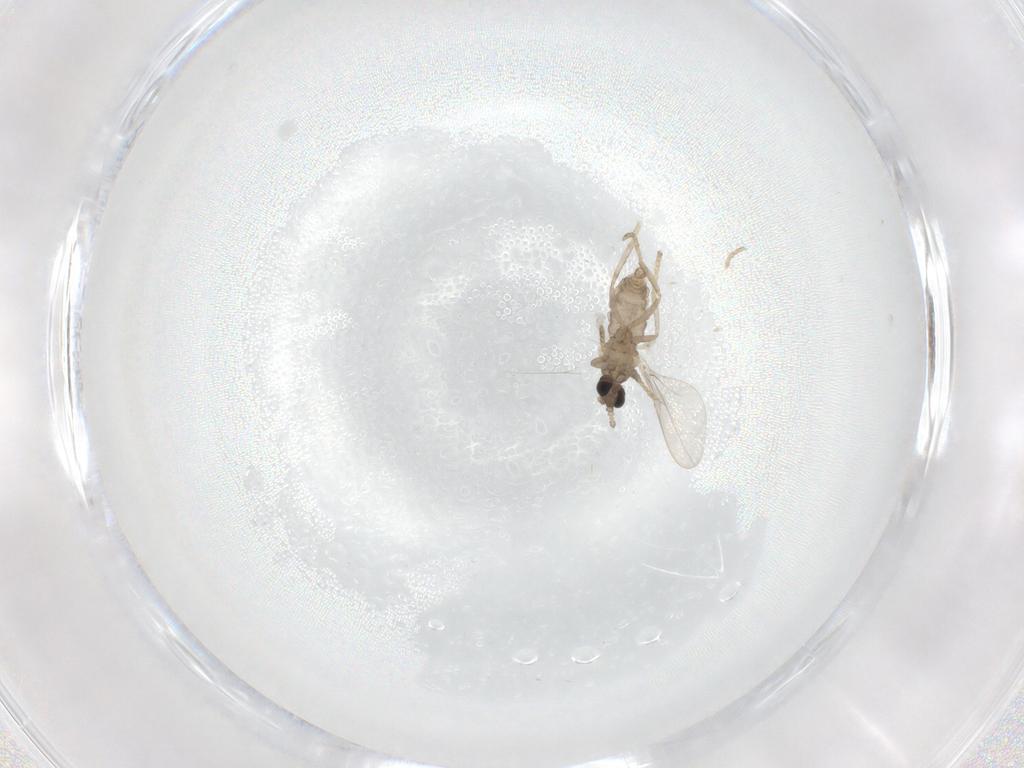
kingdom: Animalia
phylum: Arthropoda
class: Insecta
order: Diptera
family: Cecidomyiidae
